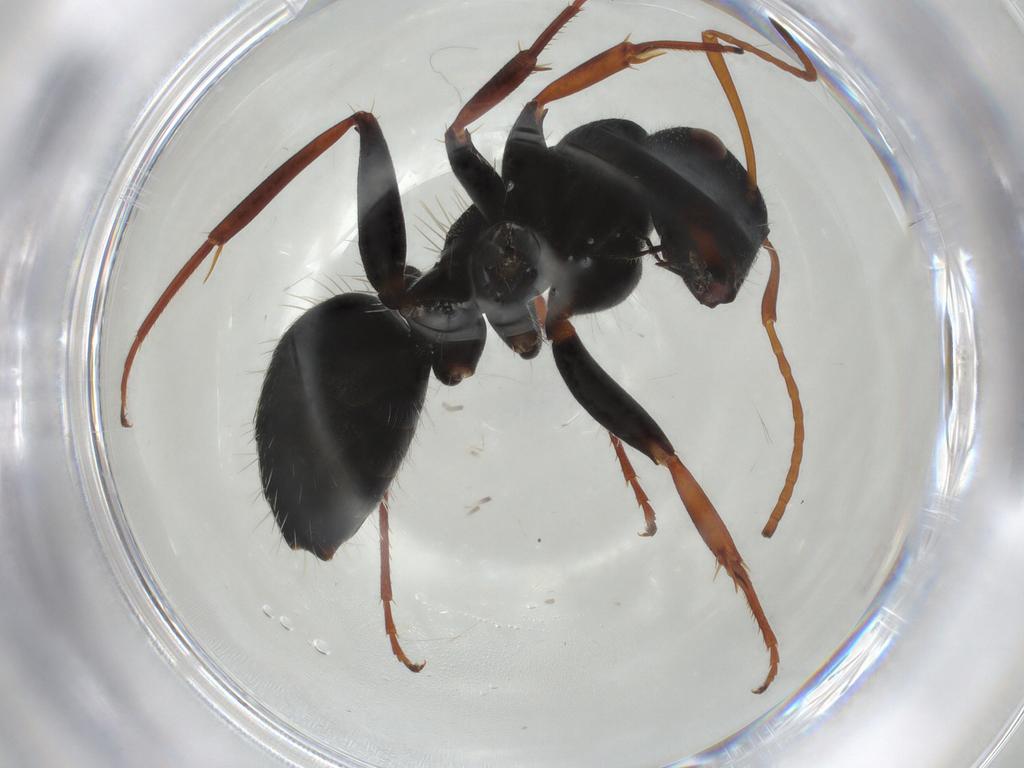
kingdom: Animalia
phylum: Arthropoda
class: Insecta
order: Hymenoptera
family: Formicidae
